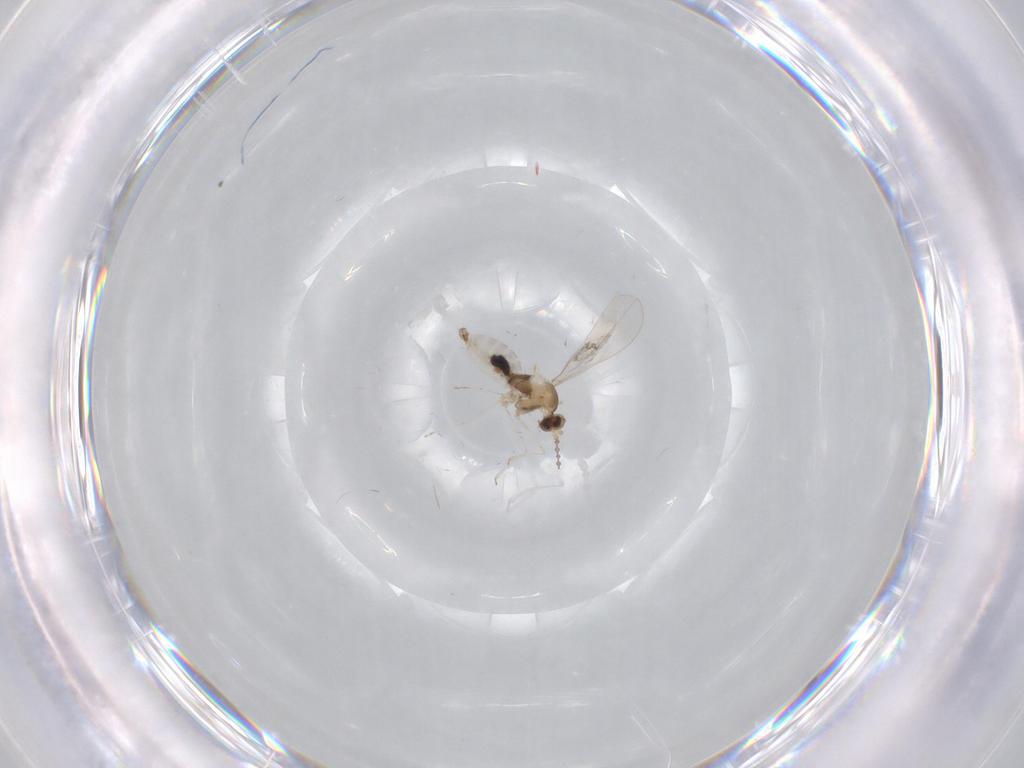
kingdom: Animalia
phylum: Arthropoda
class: Insecta
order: Diptera
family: Cecidomyiidae
